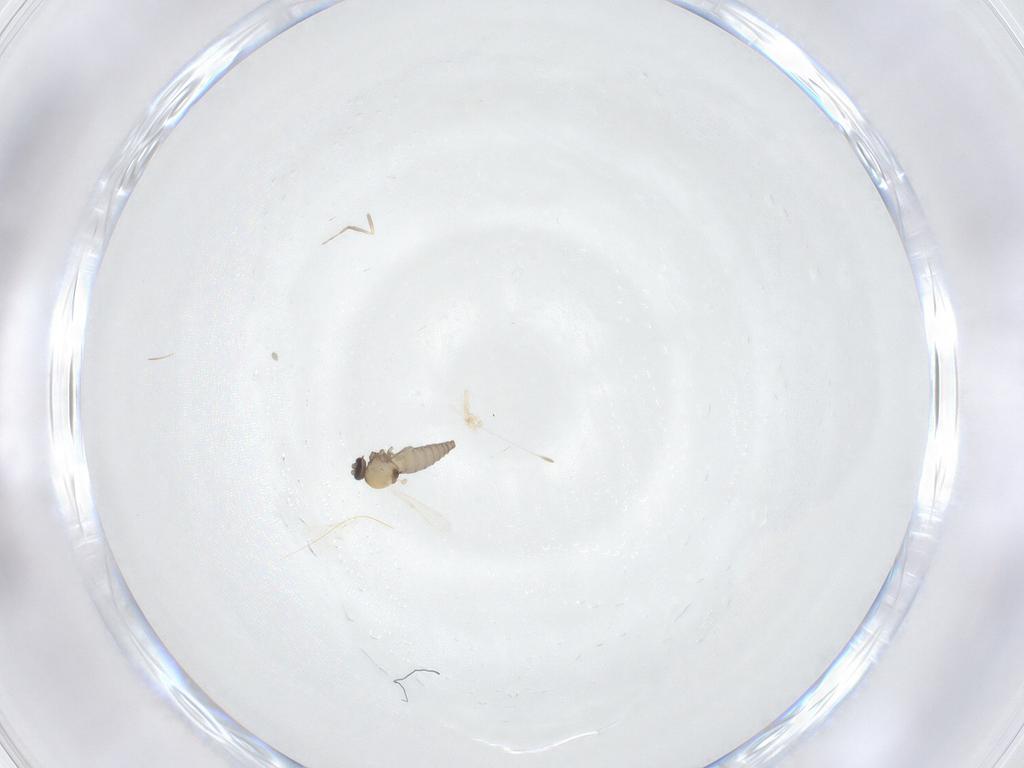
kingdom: Animalia
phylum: Arthropoda
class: Insecta
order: Diptera
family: Ceratopogonidae
